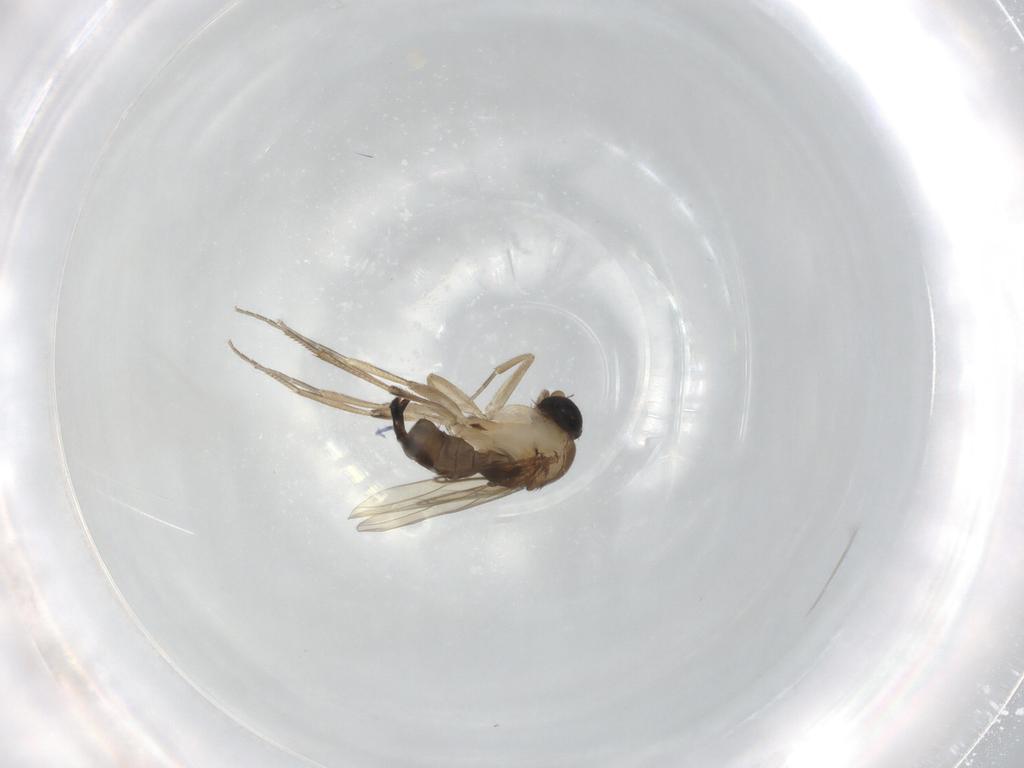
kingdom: Animalia
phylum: Arthropoda
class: Insecta
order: Diptera
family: Phoridae
